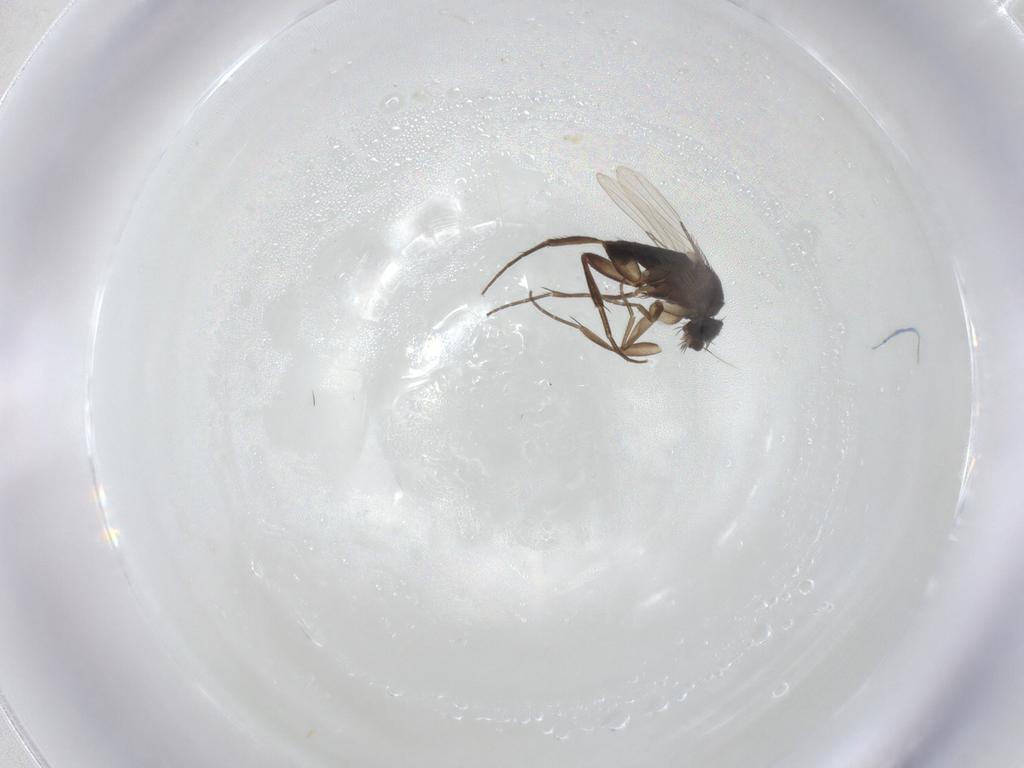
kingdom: Animalia
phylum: Arthropoda
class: Insecta
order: Diptera
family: Phoridae
